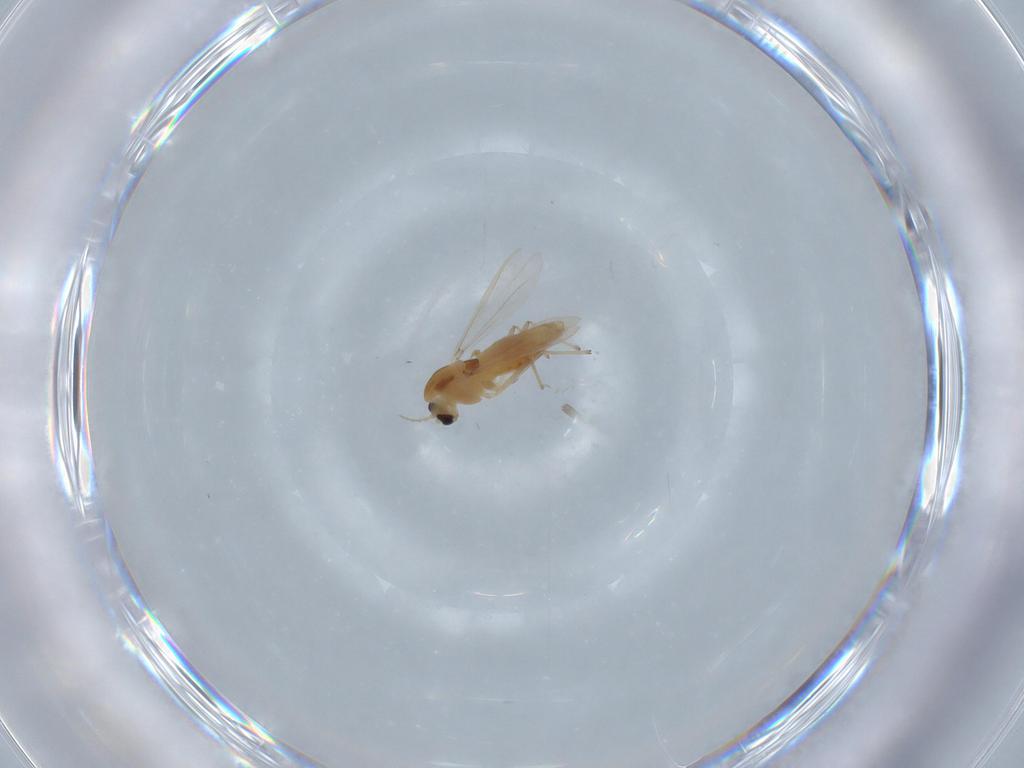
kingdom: Animalia
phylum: Arthropoda
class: Insecta
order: Diptera
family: Chironomidae
